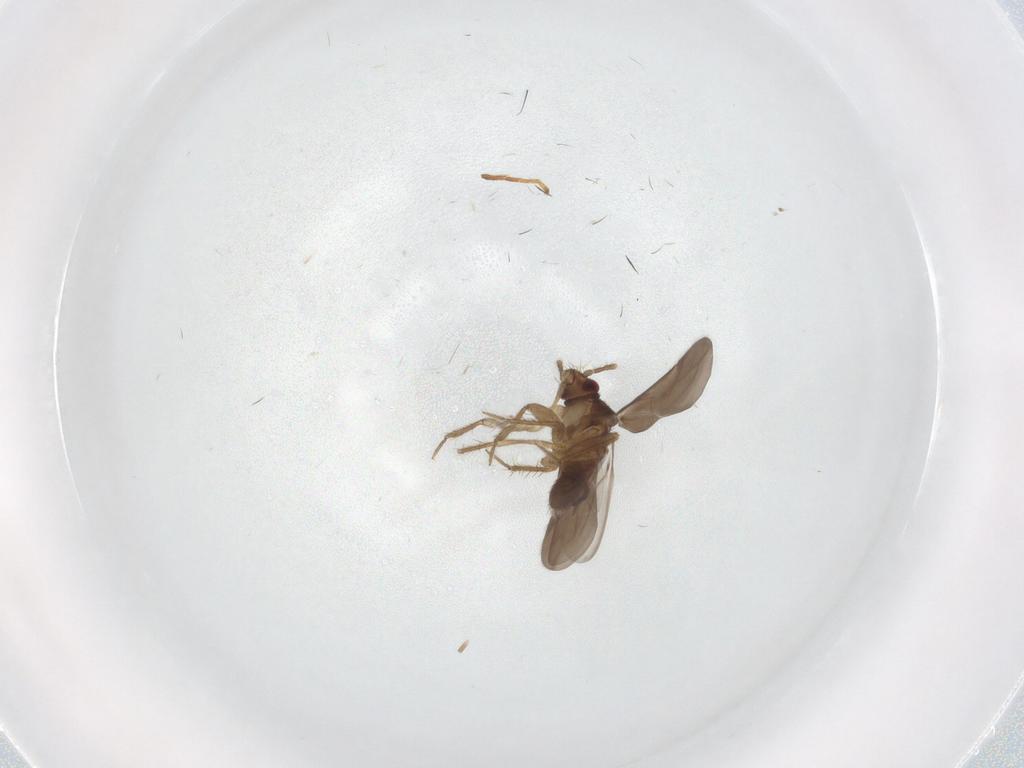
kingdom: Animalia
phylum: Arthropoda
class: Insecta
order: Hemiptera
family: Ceratocombidae
